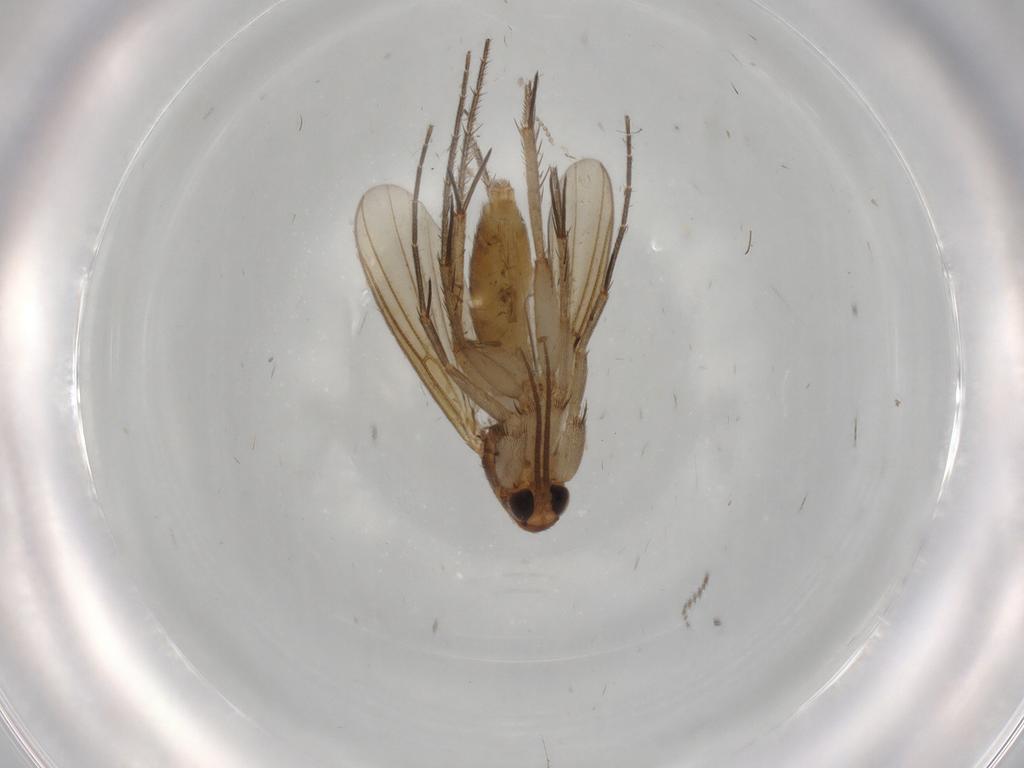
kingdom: Animalia
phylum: Arthropoda
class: Insecta
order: Diptera
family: Mycetophilidae
